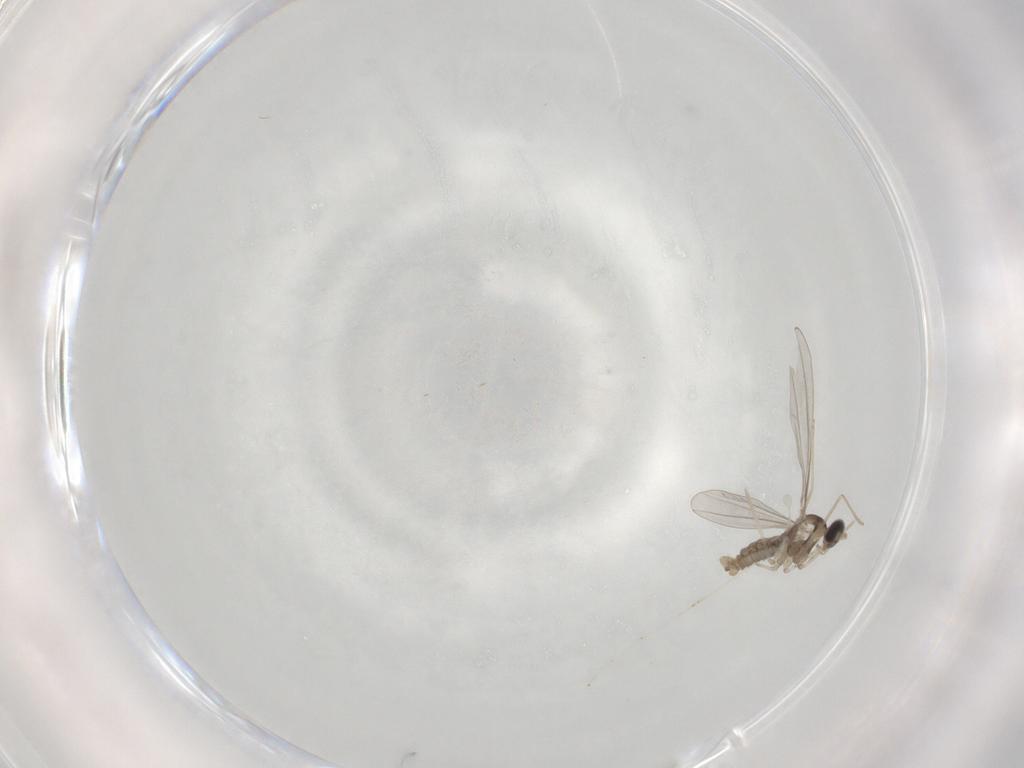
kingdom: Animalia
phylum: Arthropoda
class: Insecta
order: Diptera
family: Cecidomyiidae
